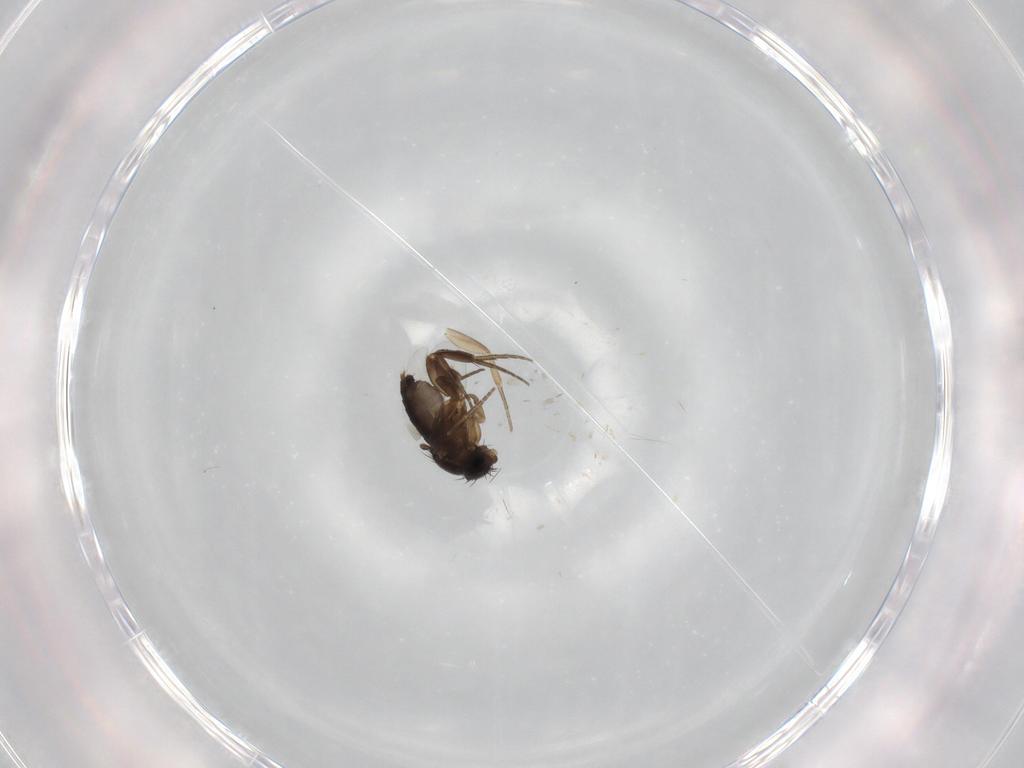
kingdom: Animalia
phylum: Arthropoda
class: Insecta
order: Diptera
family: Phoridae
